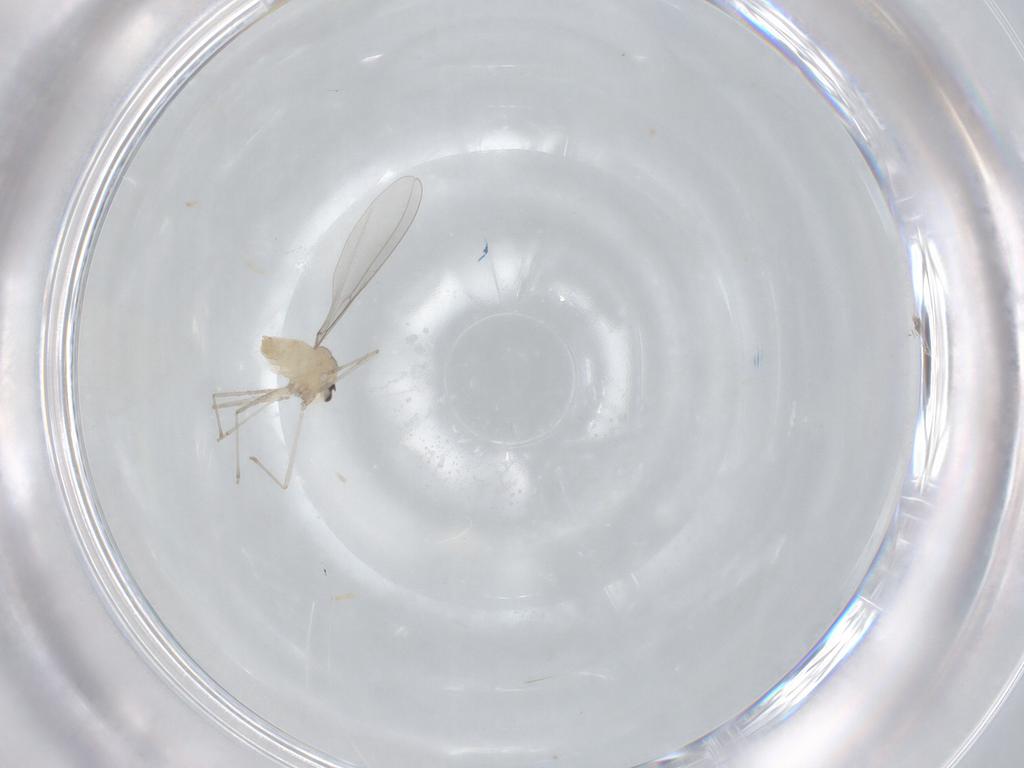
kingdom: Animalia
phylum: Arthropoda
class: Insecta
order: Diptera
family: Cecidomyiidae
